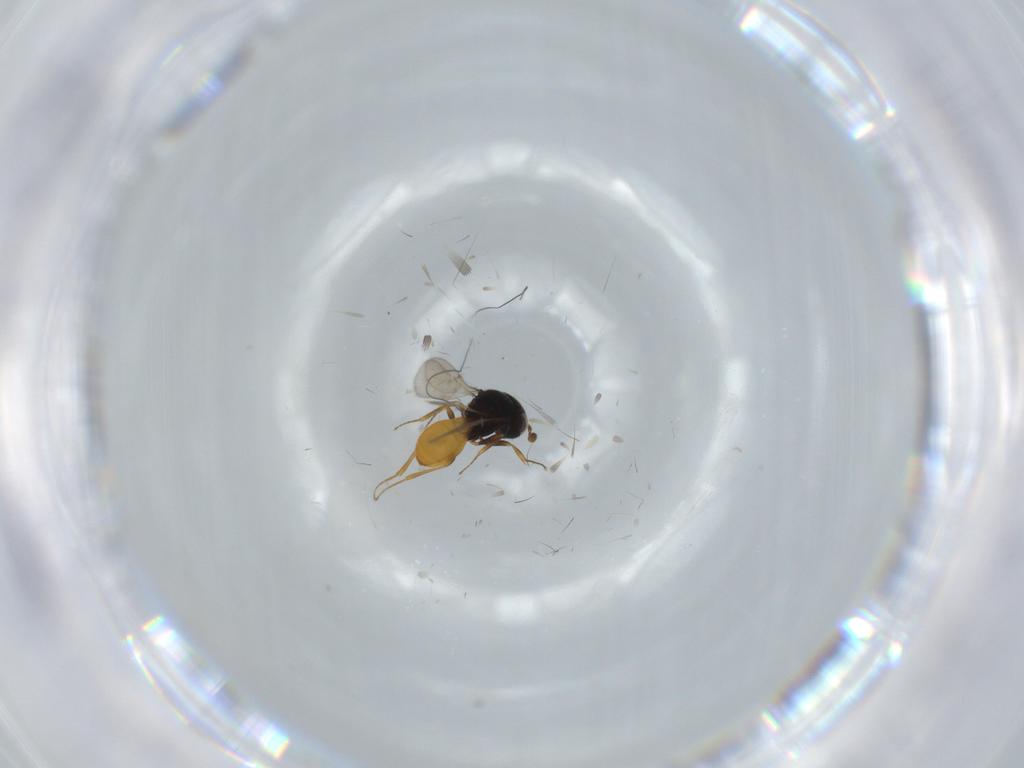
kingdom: Animalia
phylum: Arthropoda
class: Insecta
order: Hymenoptera
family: Scelionidae
